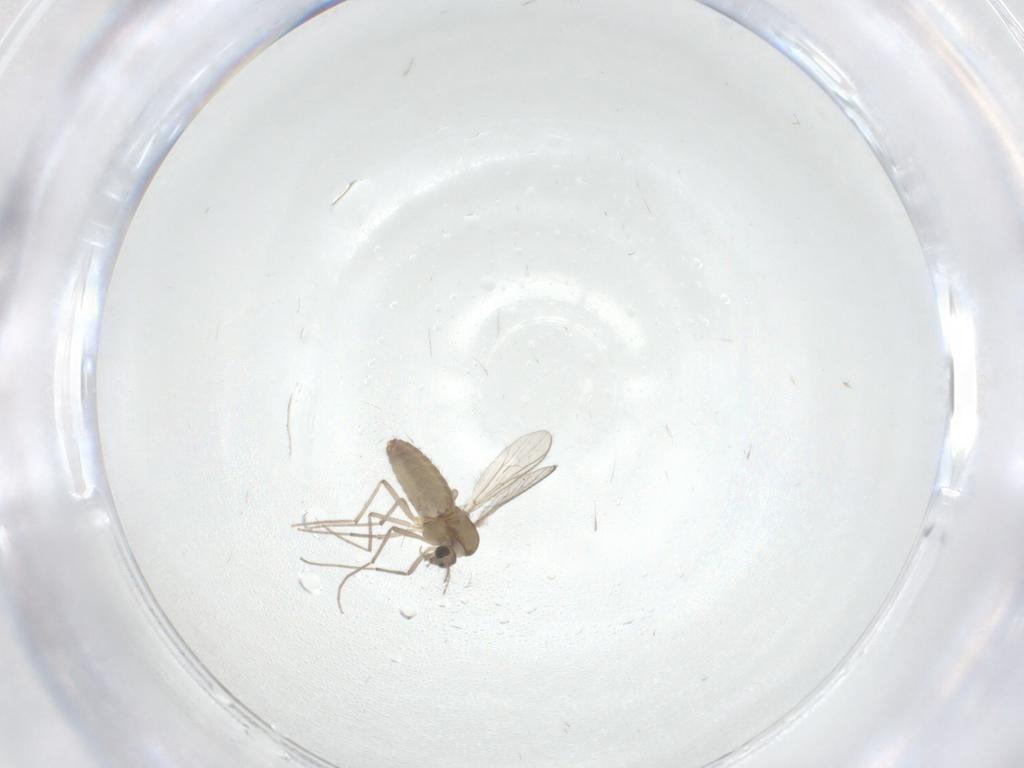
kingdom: Animalia
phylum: Arthropoda
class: Insecta
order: Diptera
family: Chironomidae
